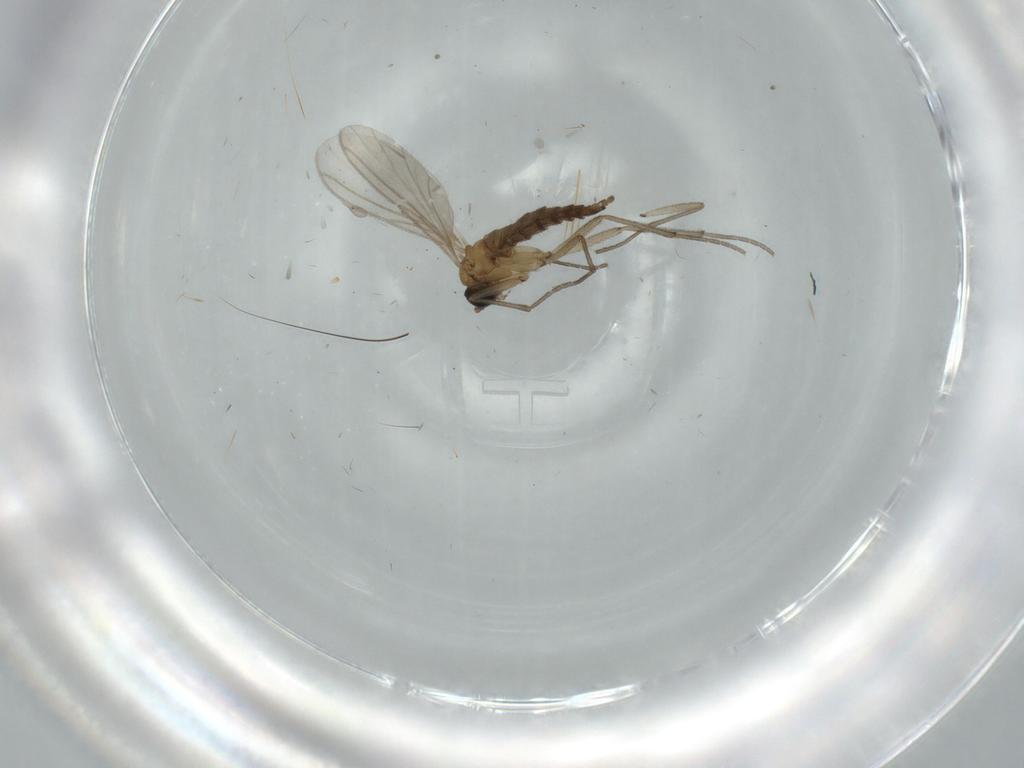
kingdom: Animalia
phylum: Arthropoda
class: Insecta
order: Diptera
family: Sciaridae
